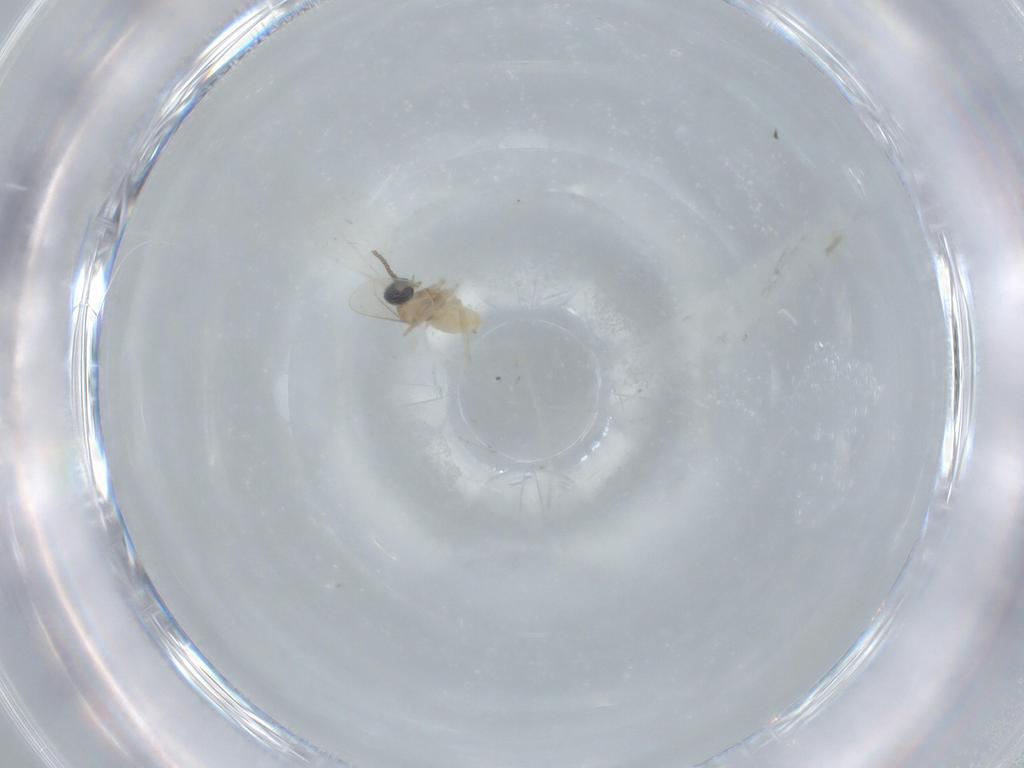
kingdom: Animalia
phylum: Arthropoda
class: Insecta
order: Diptera
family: Cecidomyiidae
